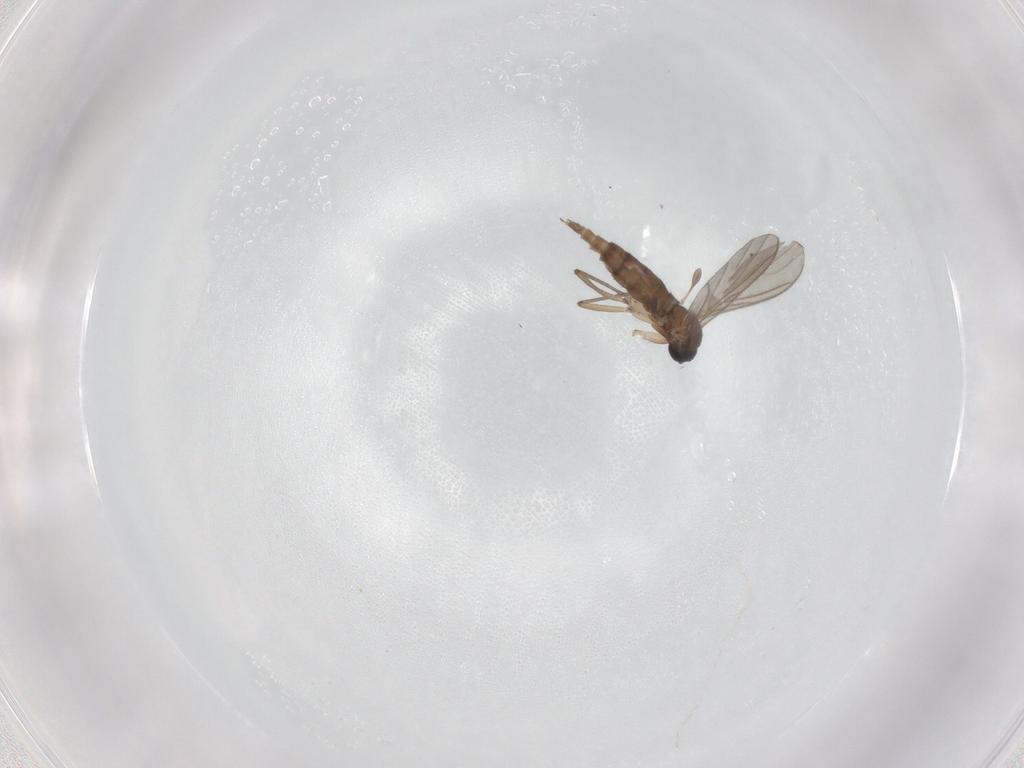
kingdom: Animalia
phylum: Arthropoda
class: Insecta
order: Diptera
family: Sciaridae
